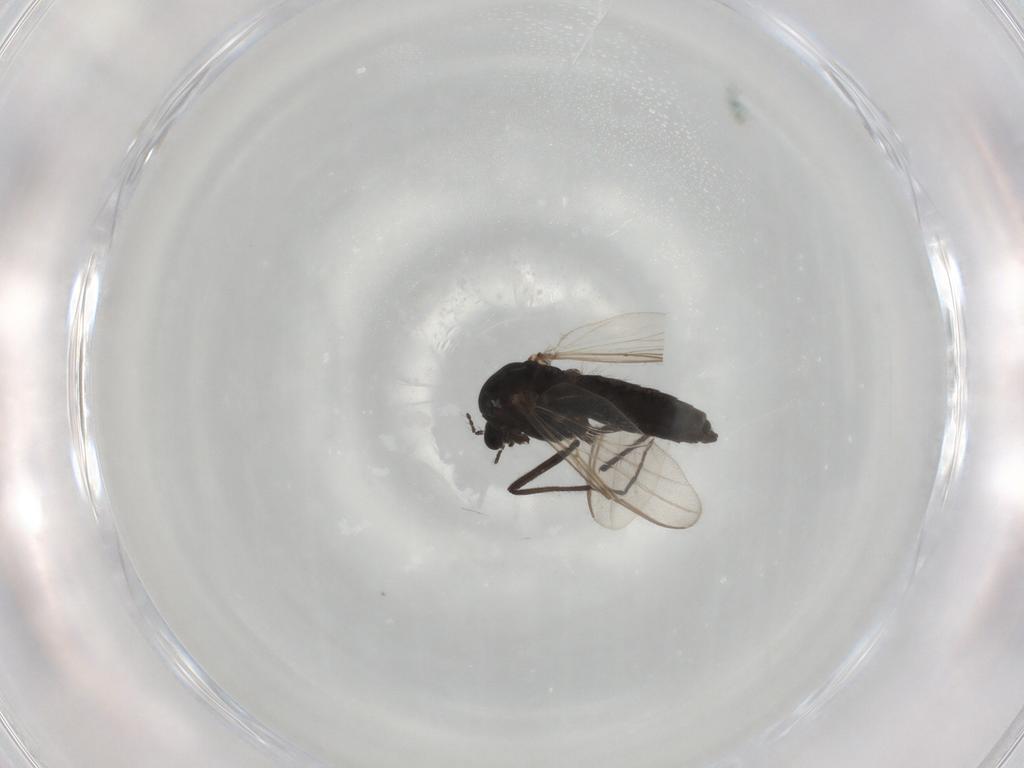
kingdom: Animalia
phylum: Arthropoda
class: Insecta
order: Diptera
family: Chironomidae
